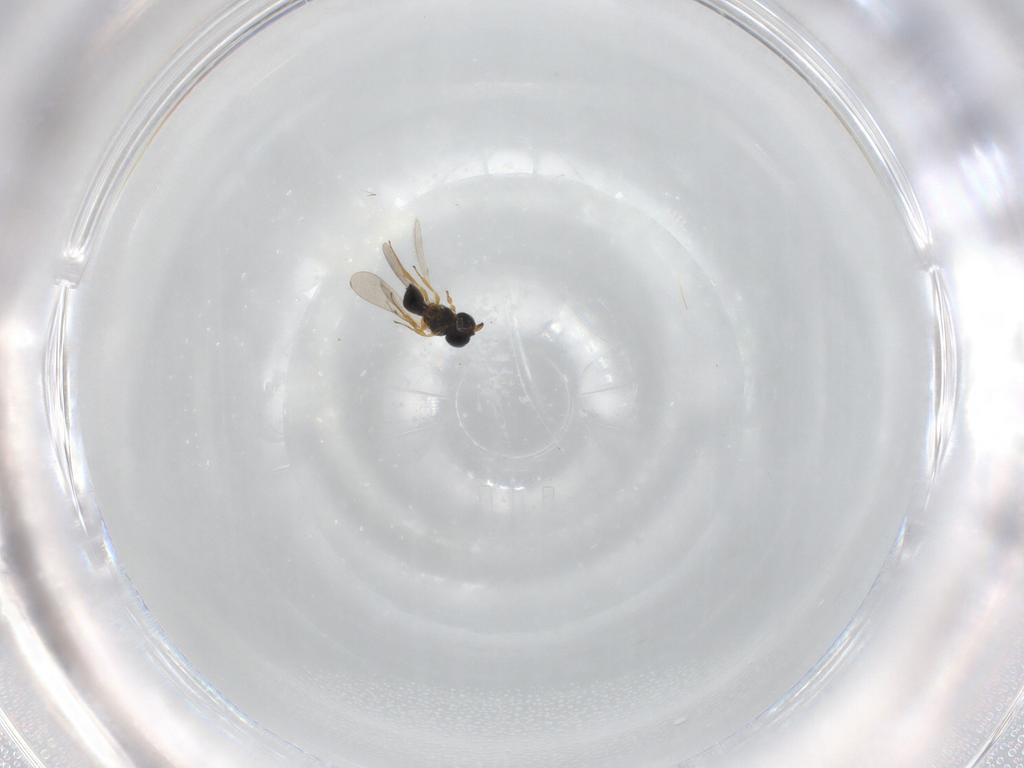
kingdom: Animalia
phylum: Arthropoda
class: Insecta
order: Hymenoptera
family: Scelionidae
